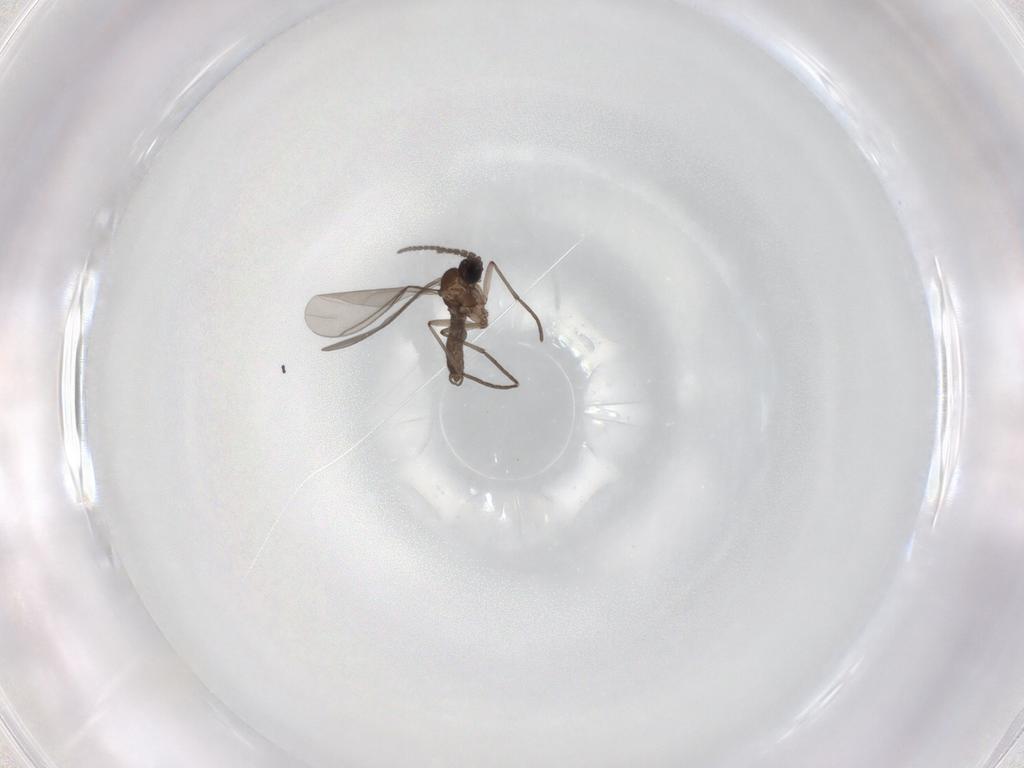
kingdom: Animalia
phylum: Arthropoda
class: Insecta
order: Diptera
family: Sciaridae
